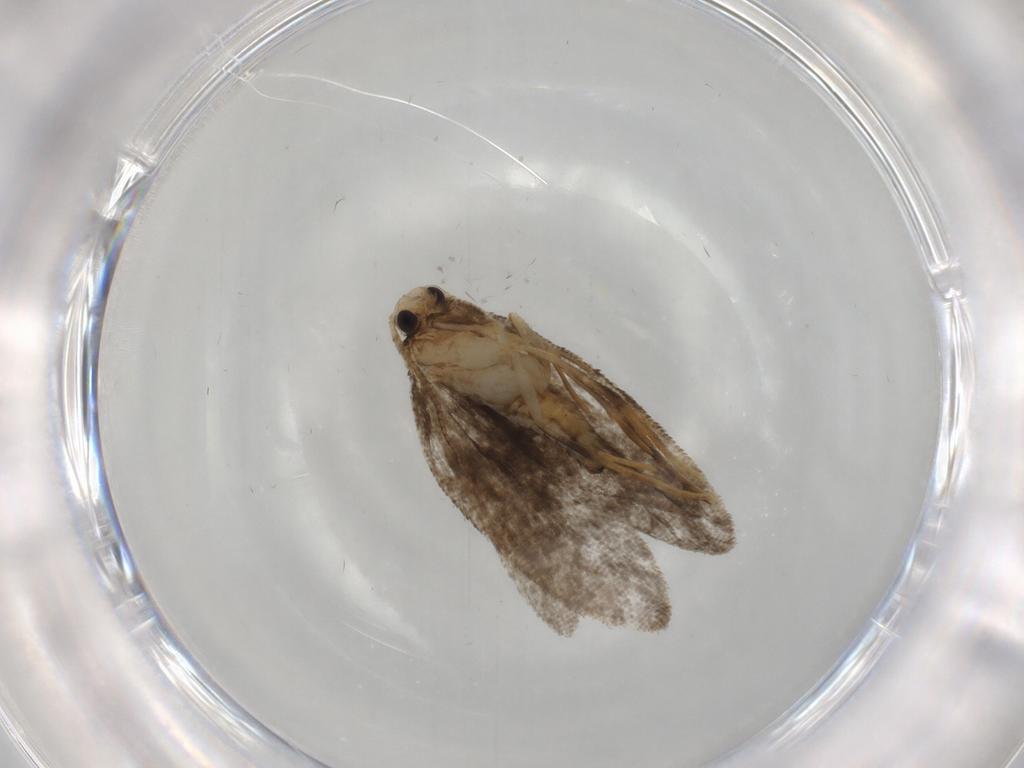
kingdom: Animalia
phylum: Arthropoda
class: Insecta
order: Lepidoptera
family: Psychidae
